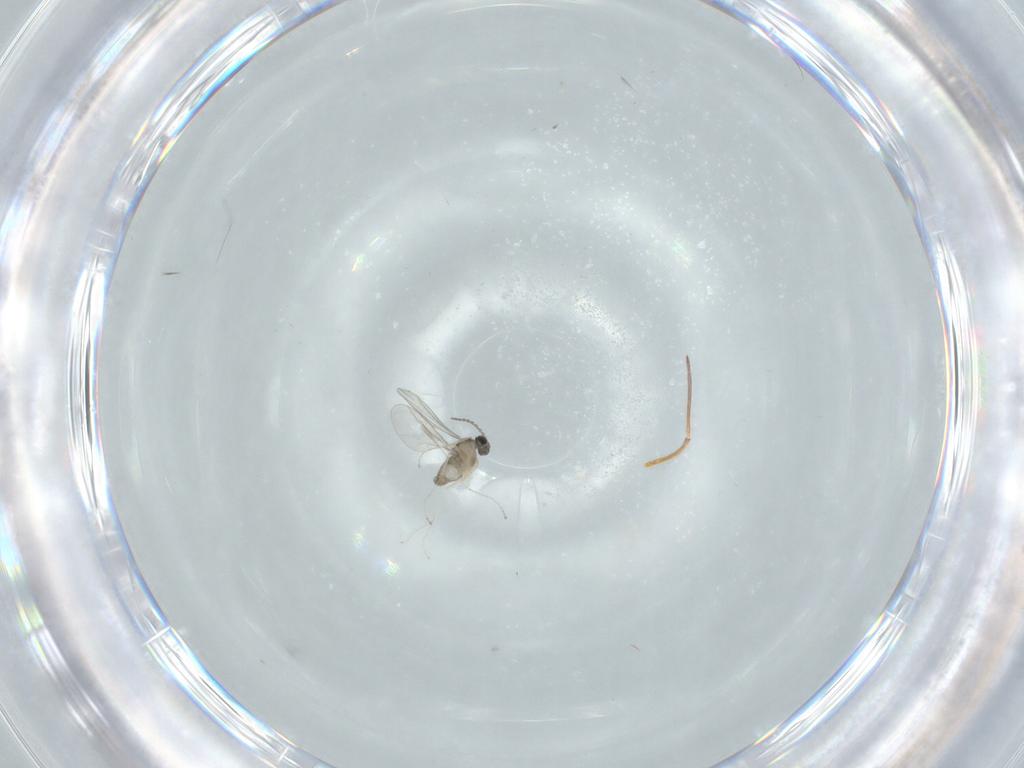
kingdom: Animalia
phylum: Arthropoda
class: Insecta
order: Diptera
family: Cecidomyiidae
